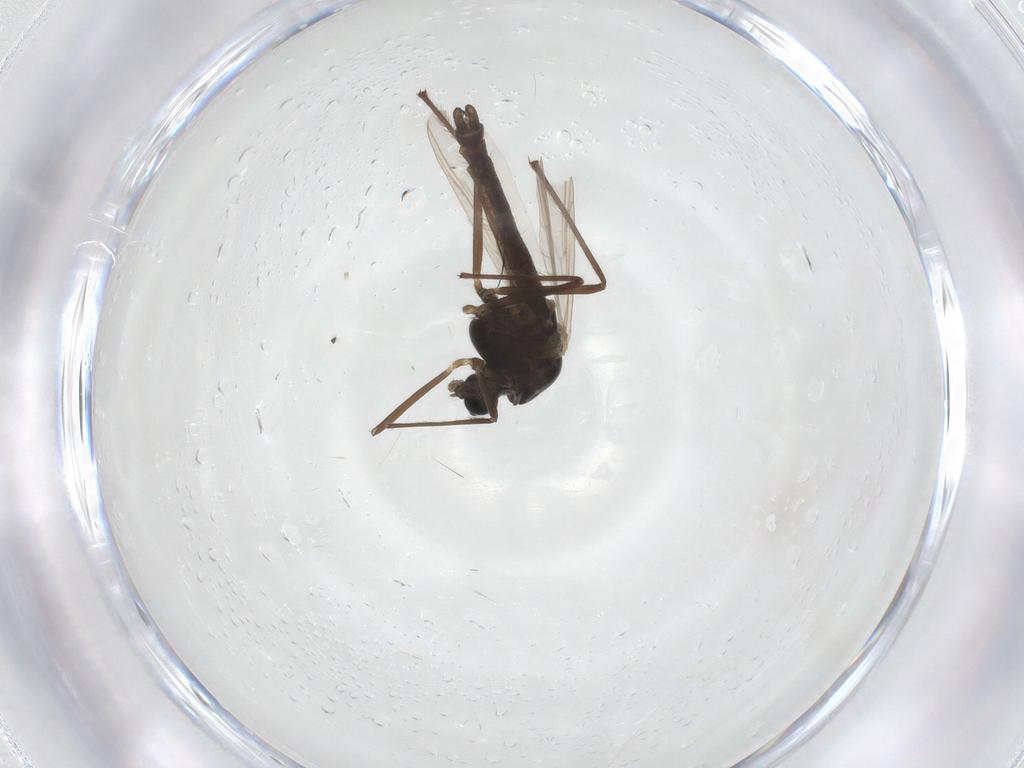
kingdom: Animalia
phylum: Arthropoda
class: Insecta
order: Diptera
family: Chironomidae
